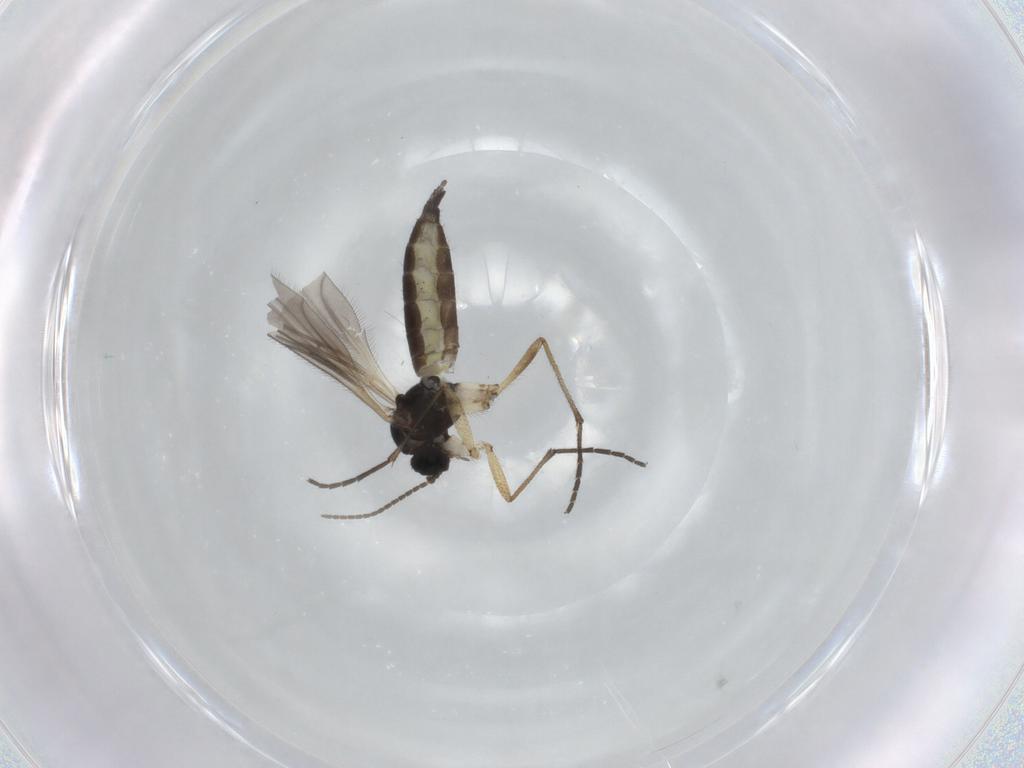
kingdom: Animalia
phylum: Arthropoda
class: Insecta
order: Diptera
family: Sciaridae
